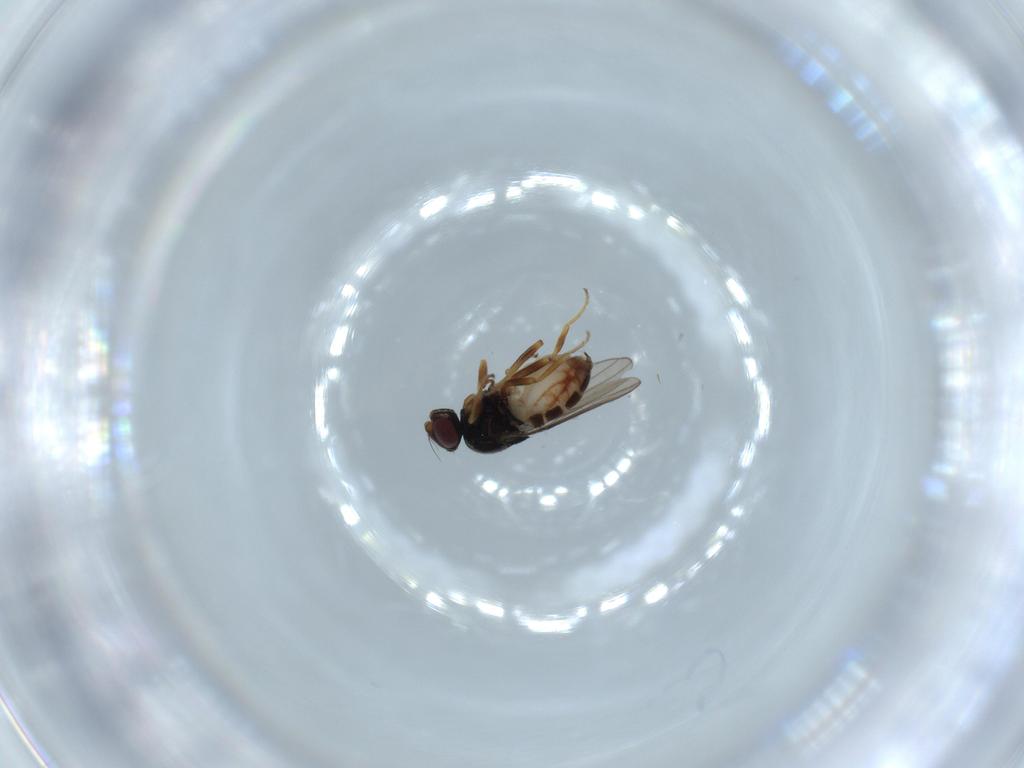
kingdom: Animalia
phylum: Arthropoda
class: Insecta
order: Diptera
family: Chloropidae
